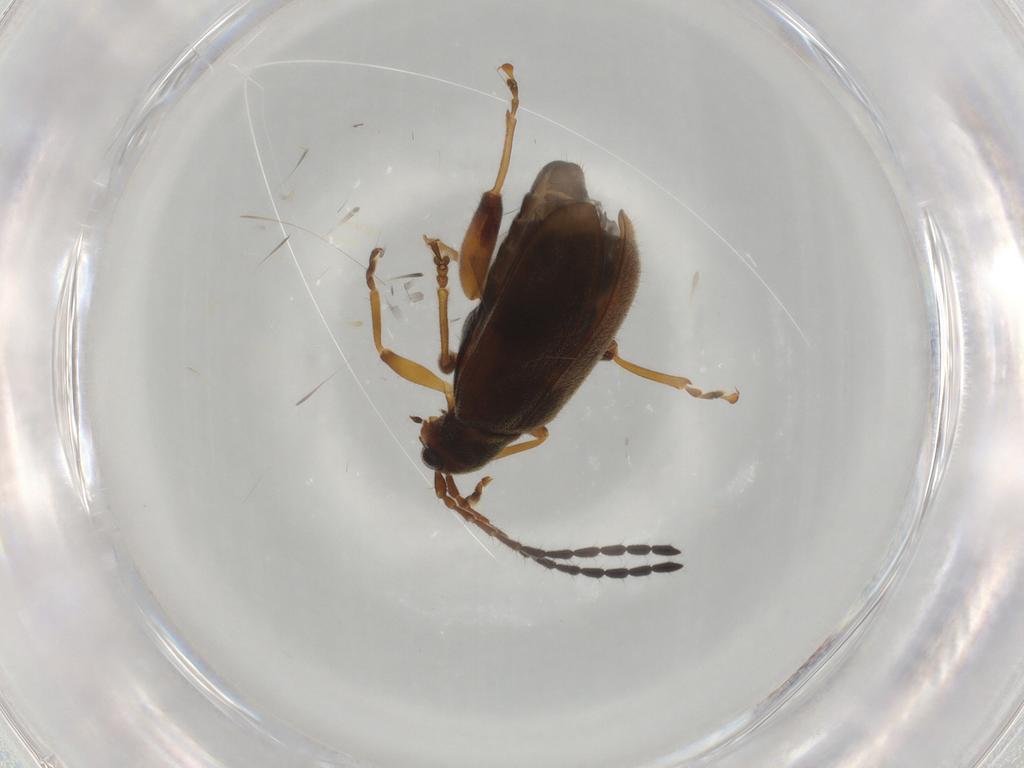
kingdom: Animalia
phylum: Arthropoda
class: Insecta
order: Coleoptera
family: Chrysomelidae
